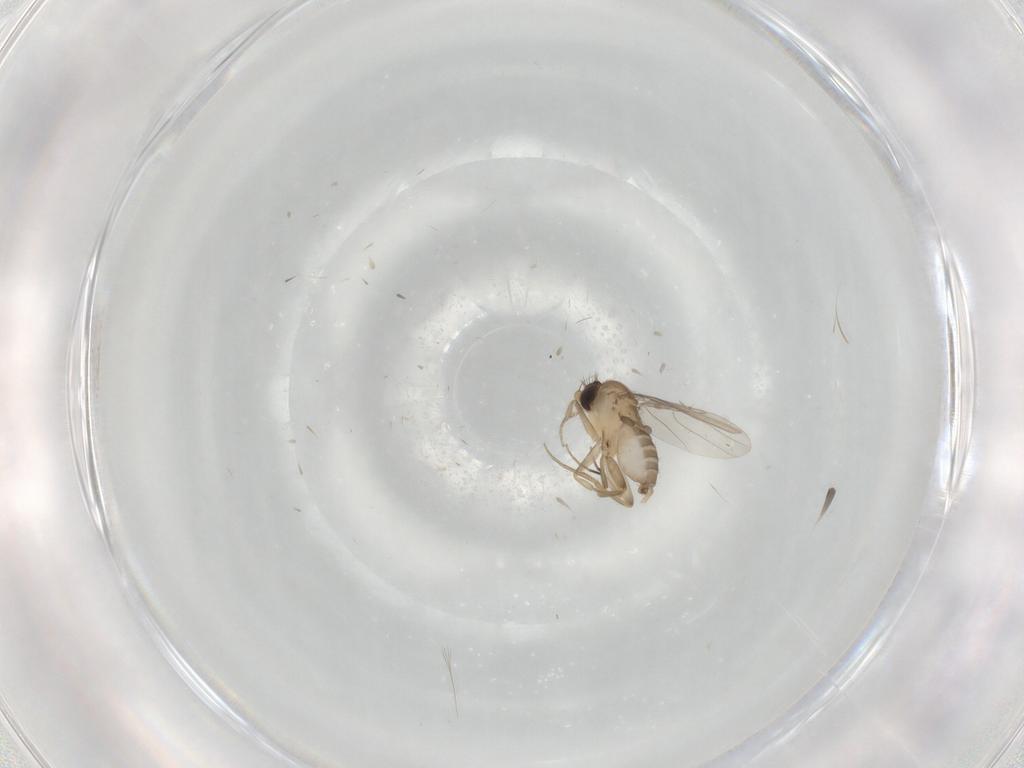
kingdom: Animalia
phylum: Arthropoda
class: Insecta
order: Diptera
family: Phoridae
